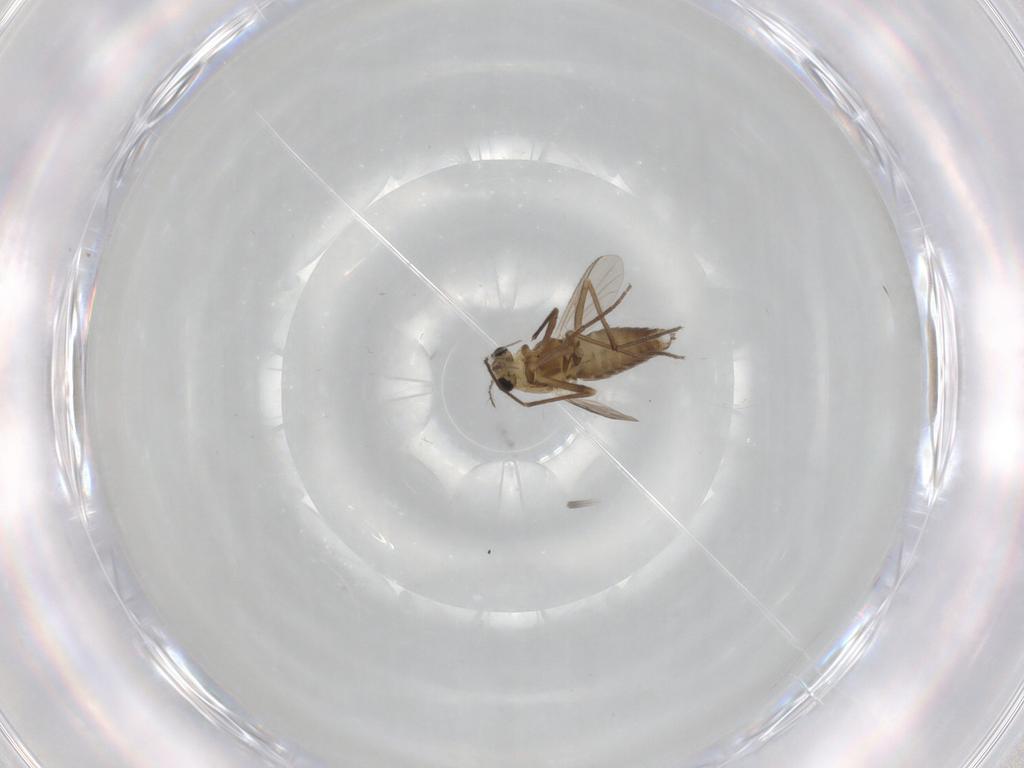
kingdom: Animalia
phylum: Arthropoda
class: Insecta
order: Diptera
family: Chironomidae
